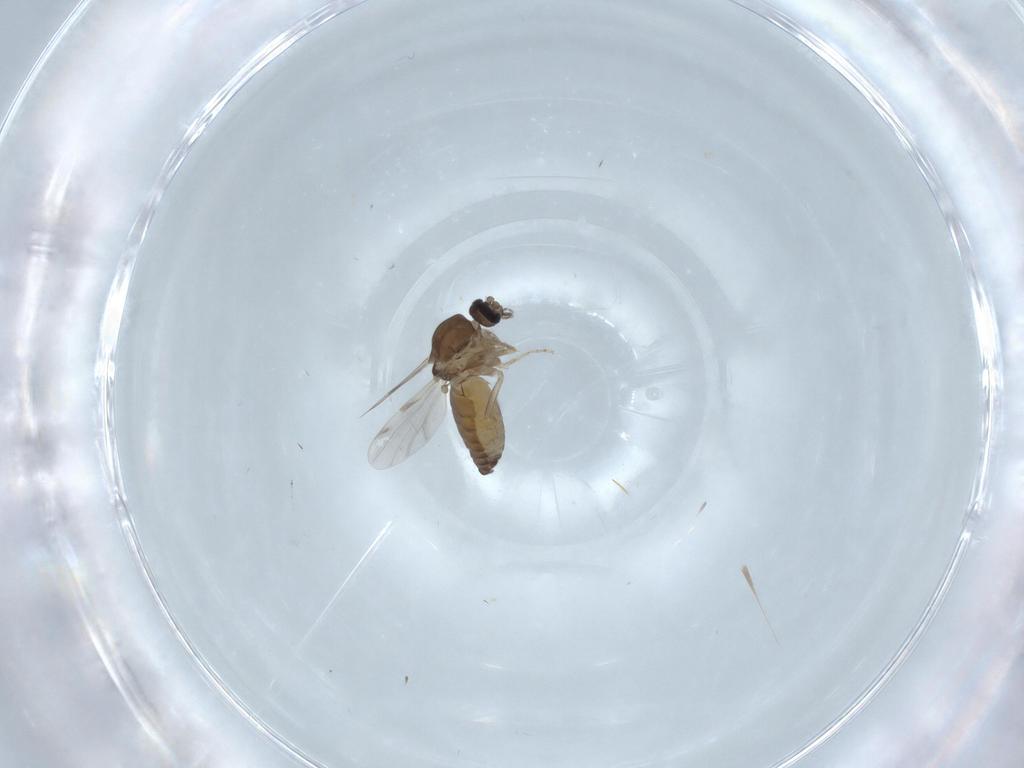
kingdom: Animalia
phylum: Arthropoda
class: Insecta
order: Diptera
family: Ceratopogonidae
